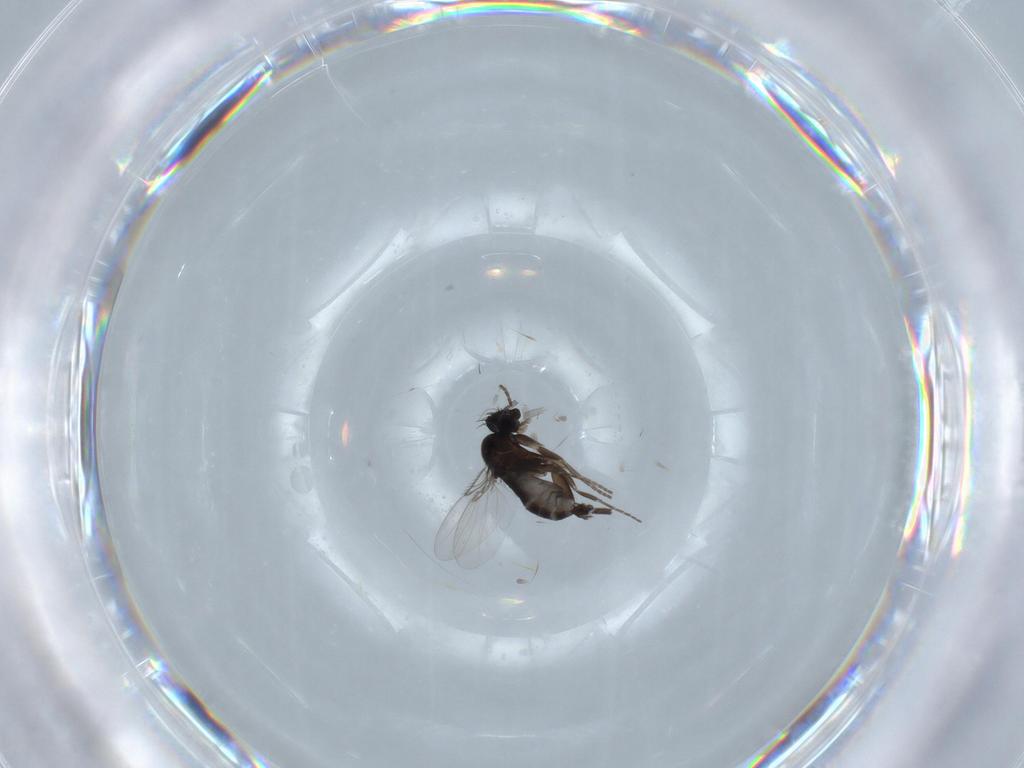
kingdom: Animalia
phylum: Arthropoda
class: Insecta
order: Diptera
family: Phoridae
